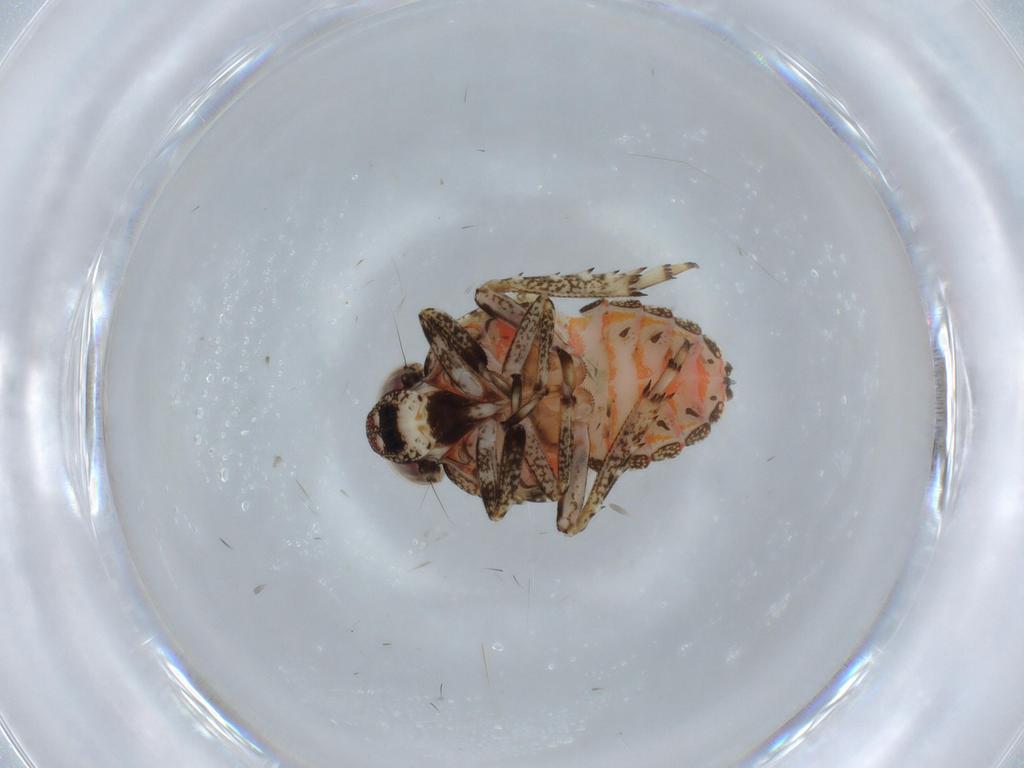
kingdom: Animalia
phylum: Arthropoda
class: Insecta
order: Hemiptera
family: Issidae
